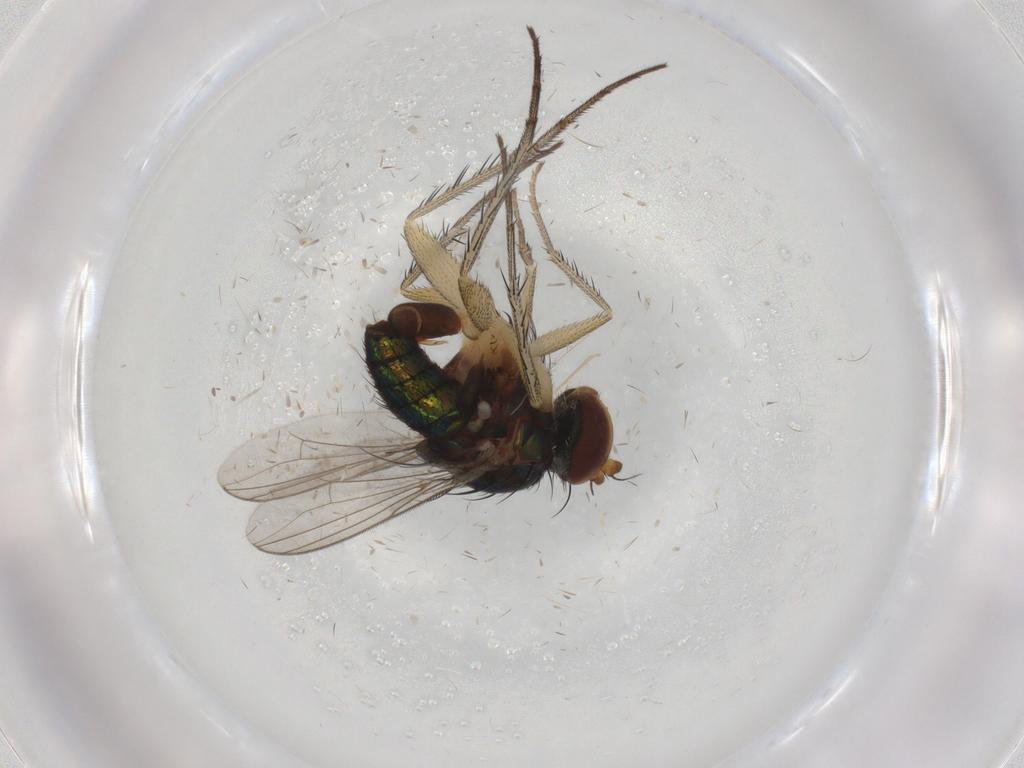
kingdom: Animalia
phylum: Arthropoda
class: Insecta
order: Diptera
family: Dolichopodidae
